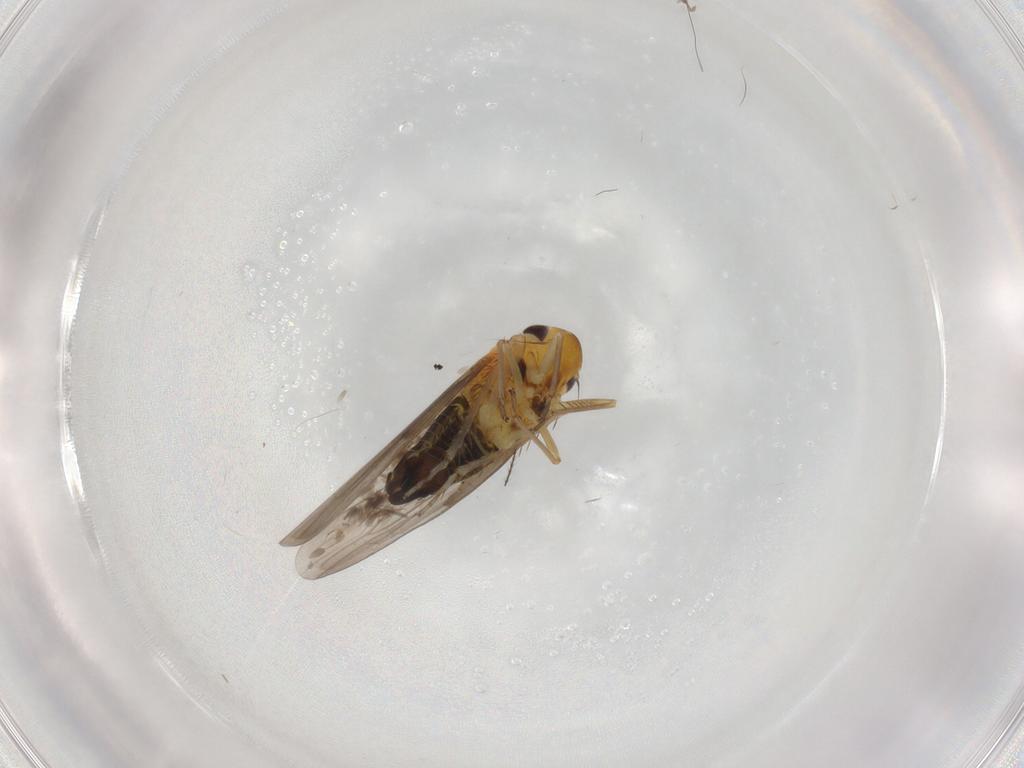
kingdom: Animalia
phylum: Arthropoda
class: Insecta
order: Hemiptera
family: Cicadellidae
